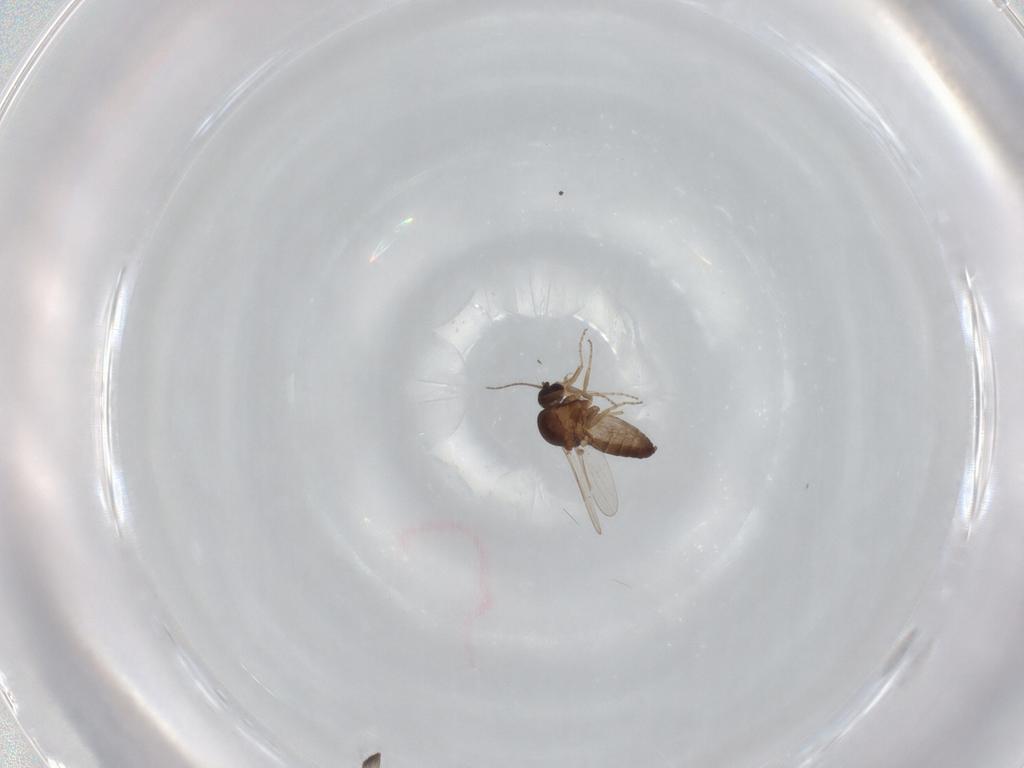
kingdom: Animalia
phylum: Arthropoda
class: Insecta
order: Diptera
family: Ceratopogonidae
